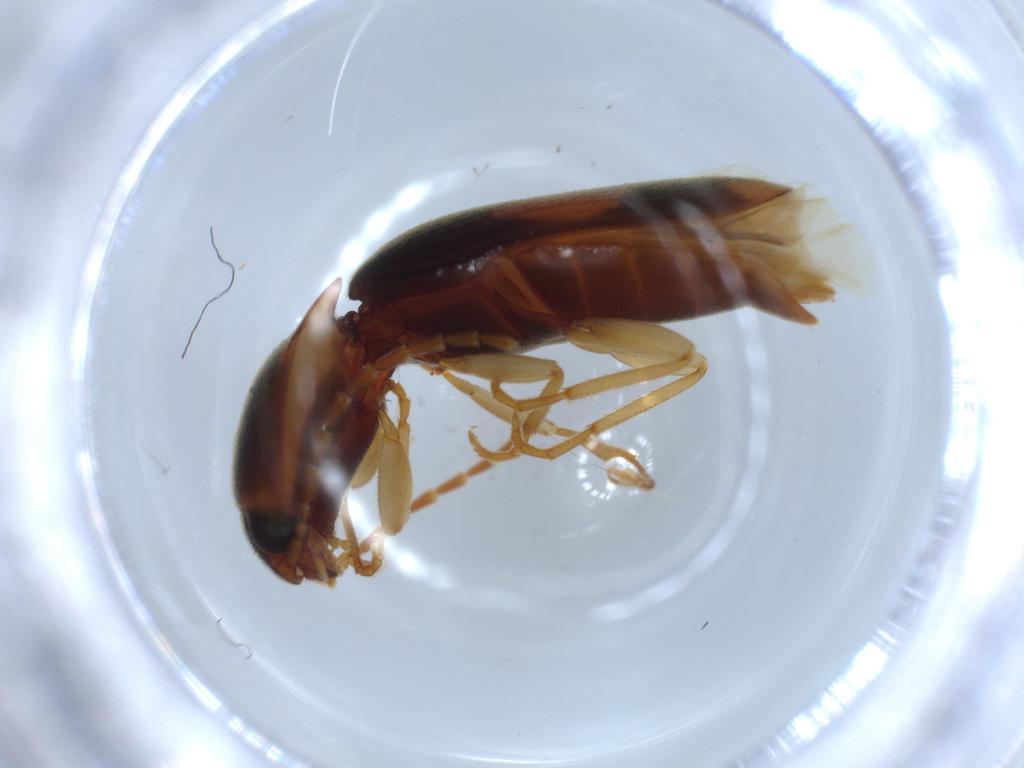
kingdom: Animalia
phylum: Arthropoda
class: Insecta
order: Coleoptera
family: Elateridae
